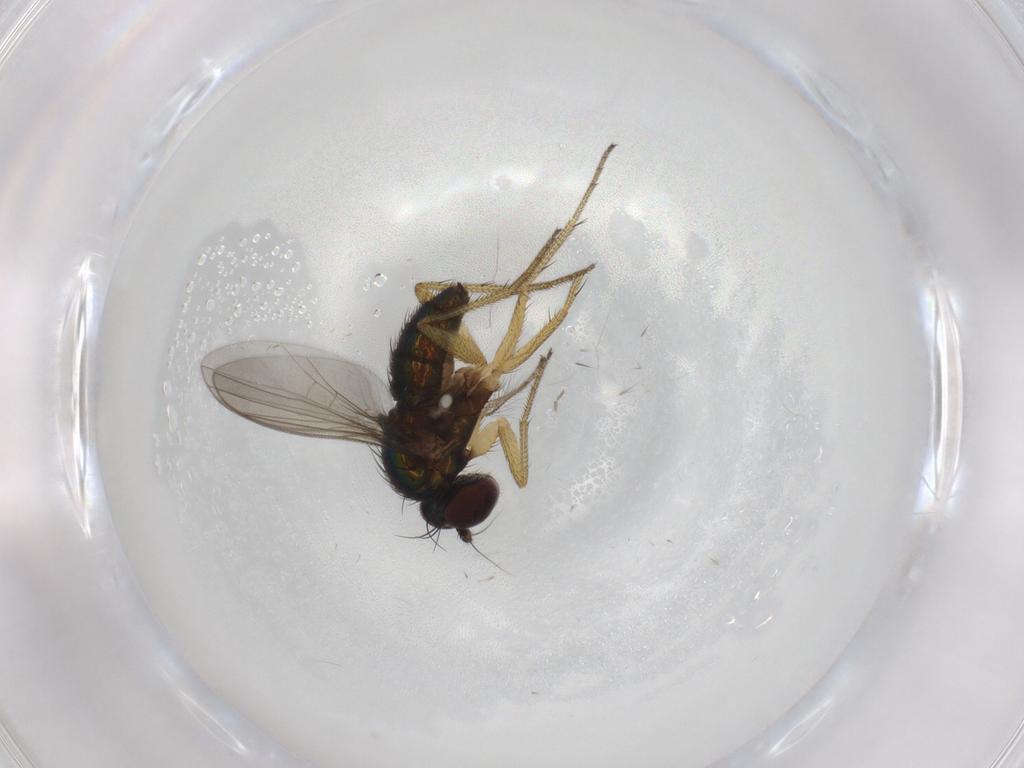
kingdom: Animalia
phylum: Arthropoda
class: Insecta
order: Diptera
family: Chironomidae
